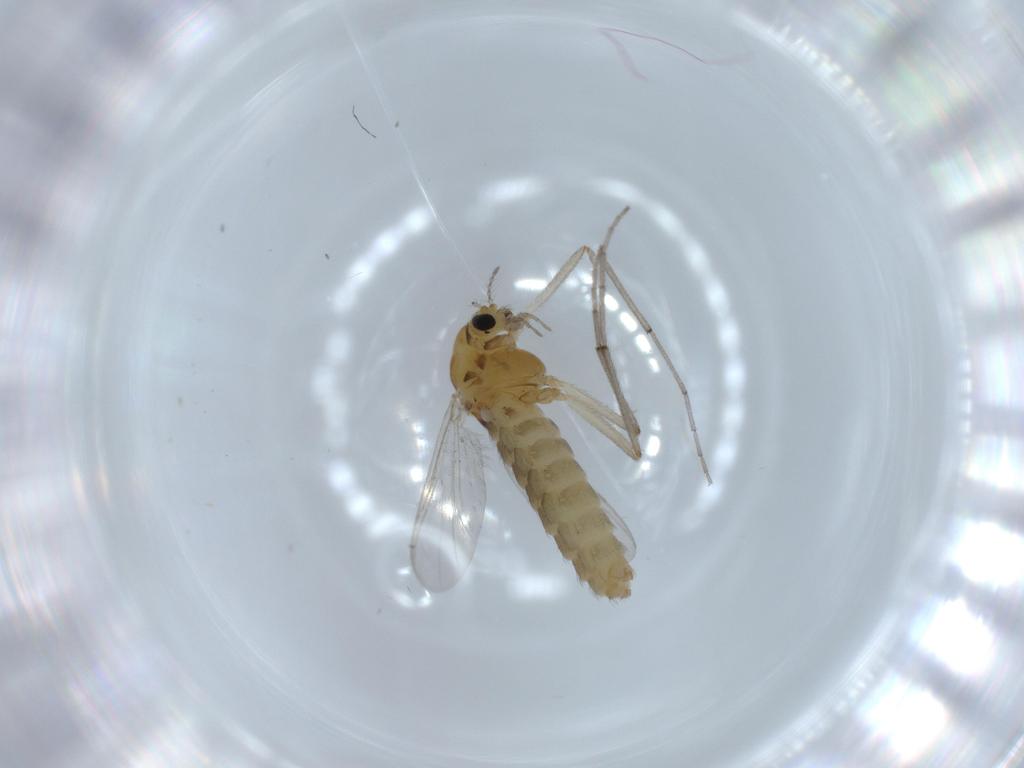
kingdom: Animalia
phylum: Arthropoda
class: Insecta
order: Diptera
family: Chironomidae
